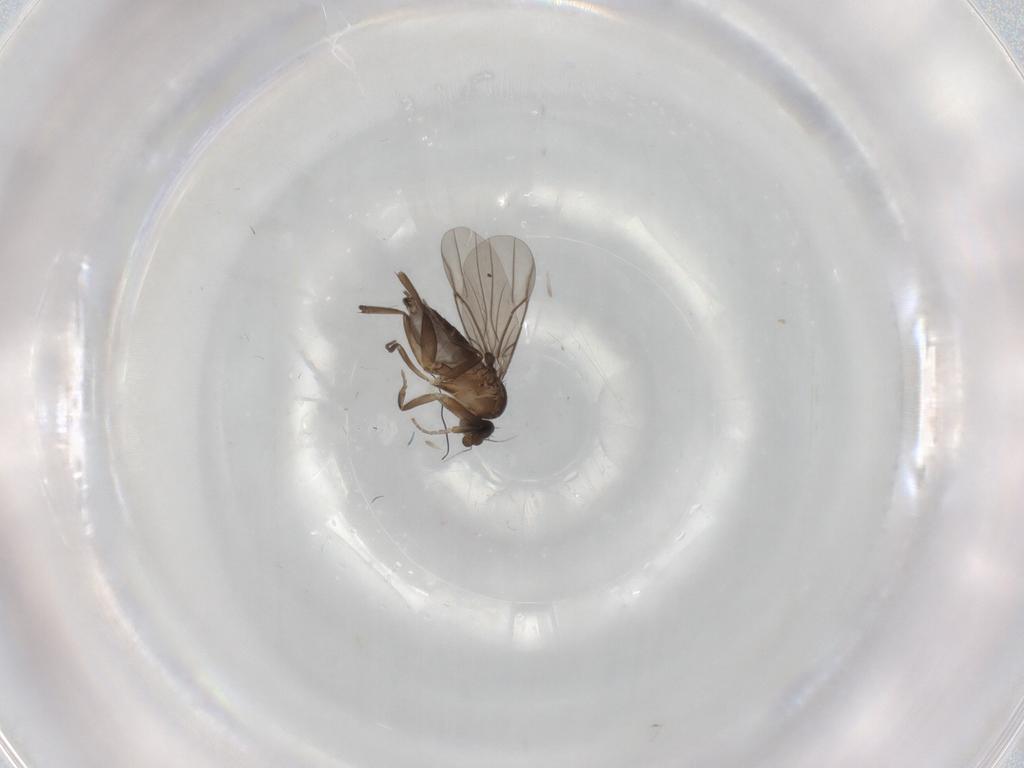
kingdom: Animalia
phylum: Arthropoda
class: Insecta
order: Diptera
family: Phoridae
